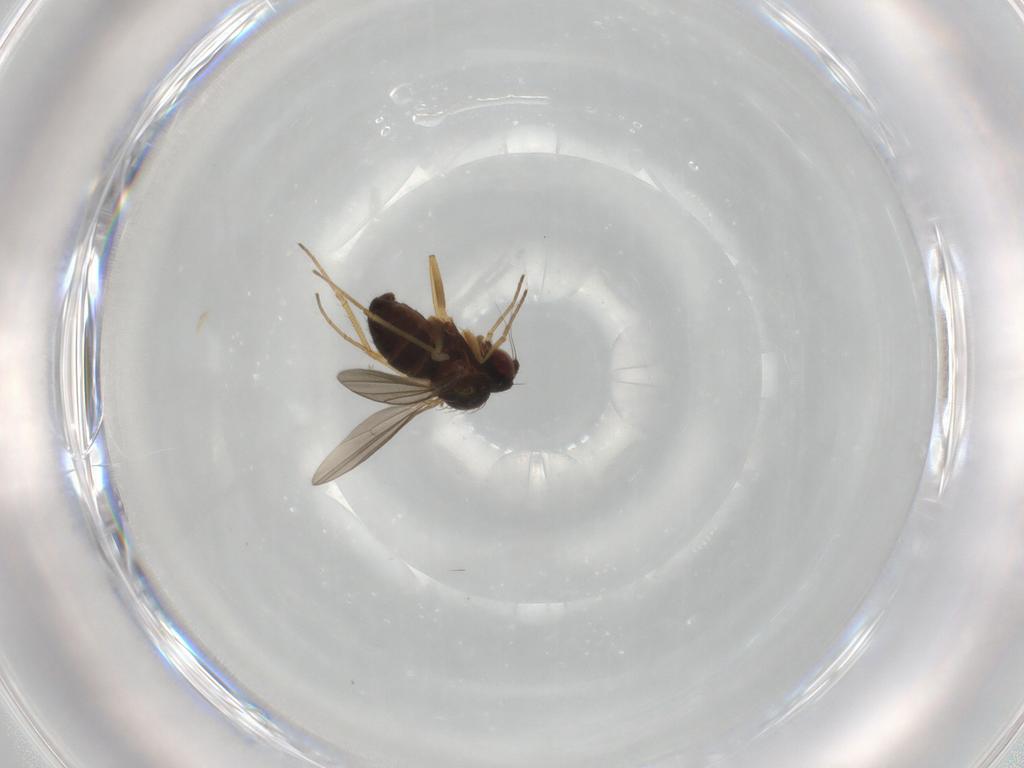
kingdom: Animalia
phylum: Arthropoda
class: Insecta
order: Diptera
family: Dolichopodidae
